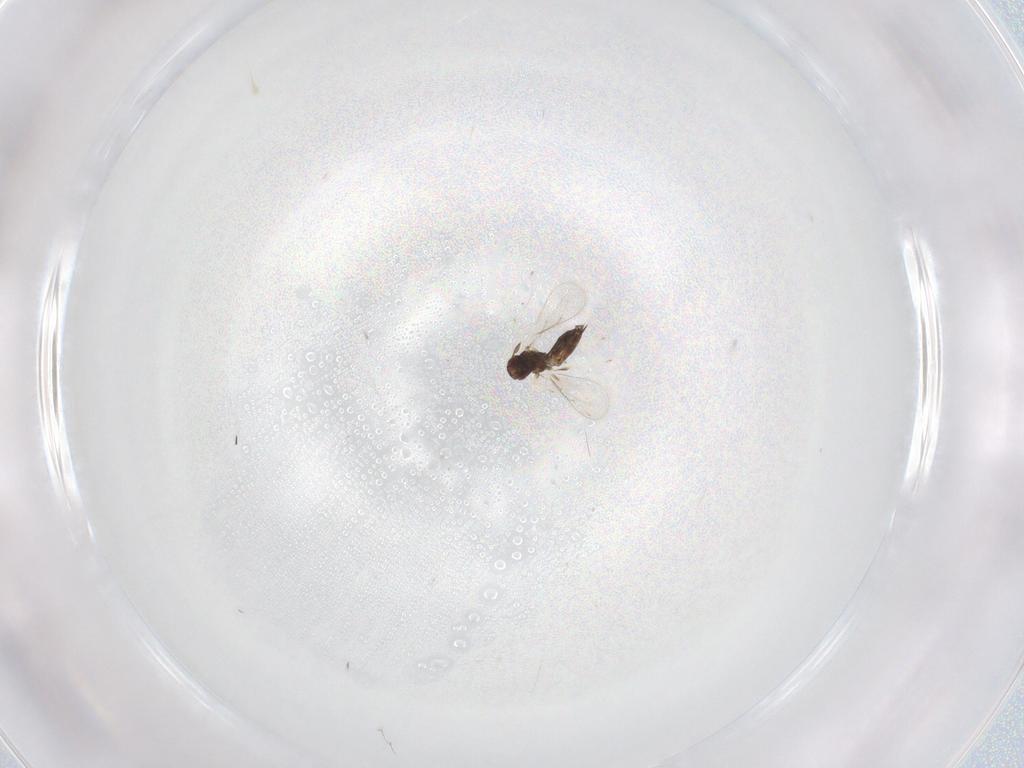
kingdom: Animalia
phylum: Arthropoda
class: Insecta
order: Hymenoptera
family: Eulophidae
